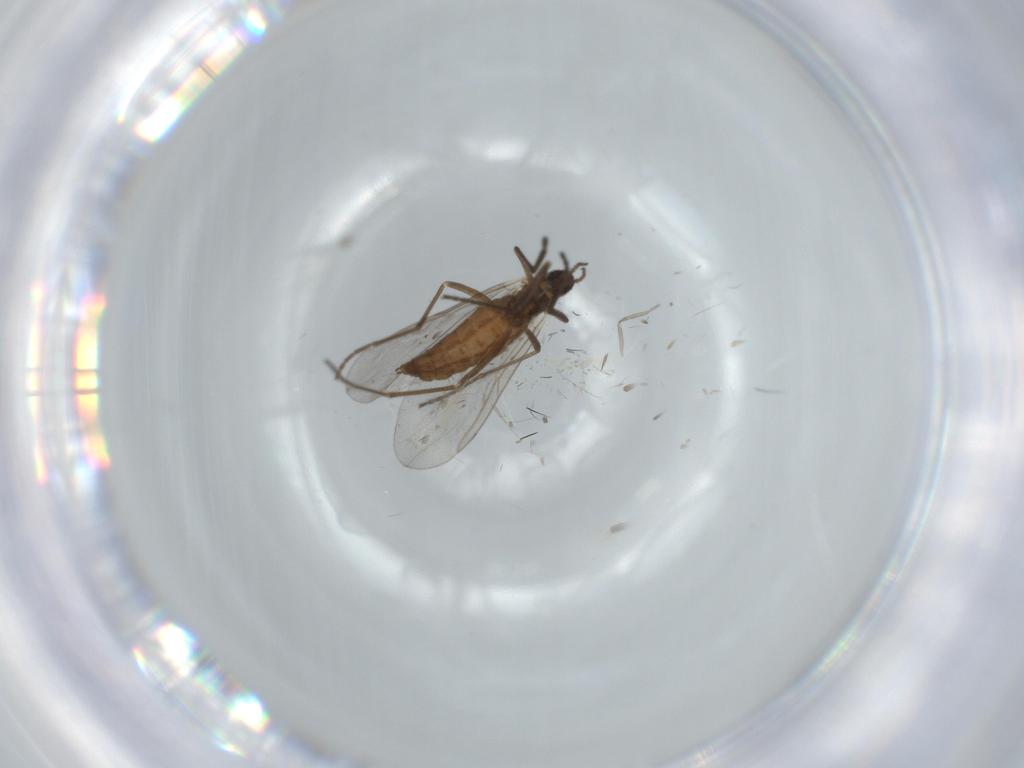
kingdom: Animalia
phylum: Arthropoda
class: Insecta
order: Diptera
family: Cecidomyiidae
